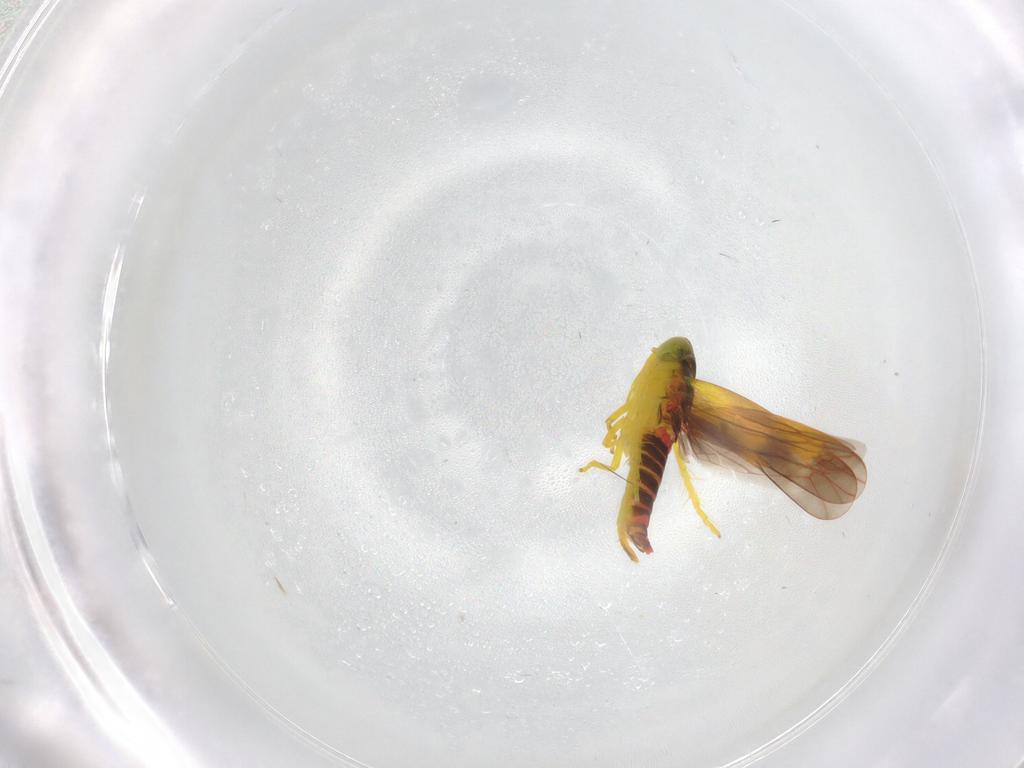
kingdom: Animalia
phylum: Arthropoda
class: Insecta
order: Hemiptera
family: Cicadellidae
